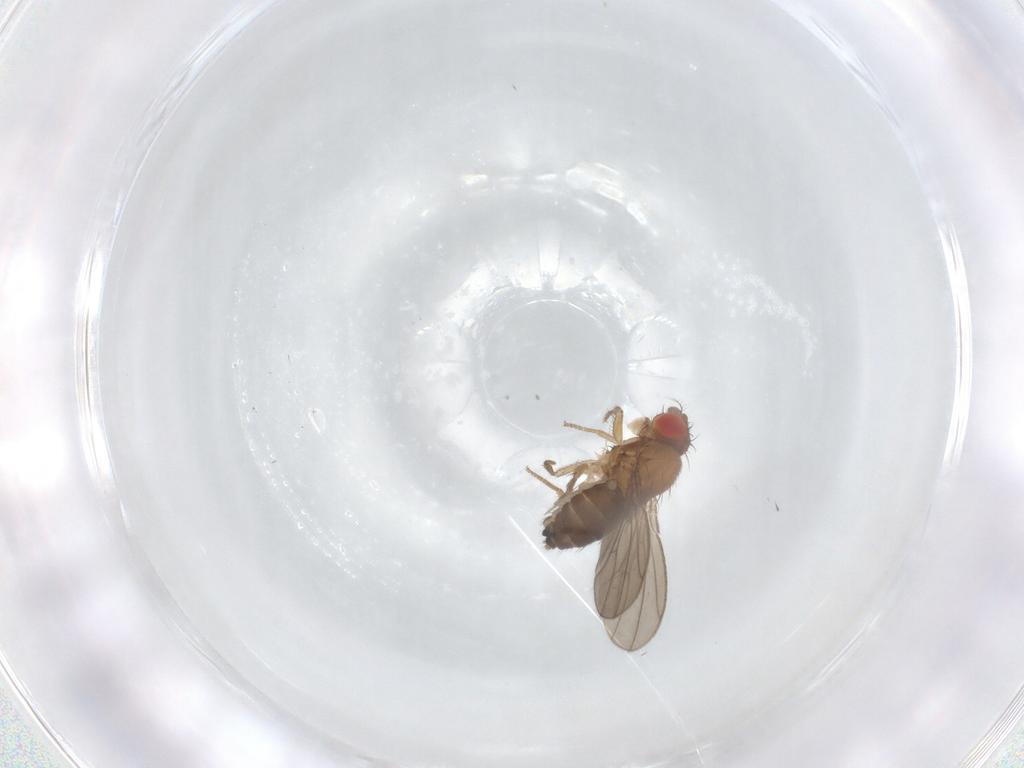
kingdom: Animalia
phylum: Arthropoda
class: Insecta
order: Diptera
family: Drosophilidae
